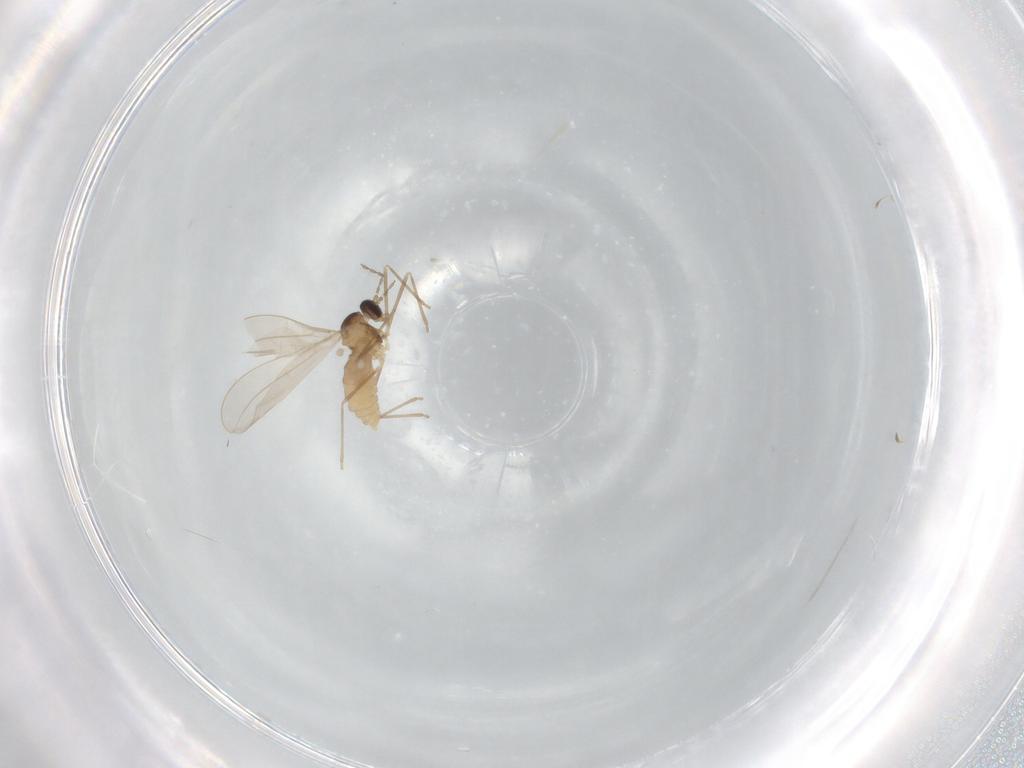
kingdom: Animalia
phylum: Arthropoda
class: Insecta
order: Diptera
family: Cecidomyiidae
